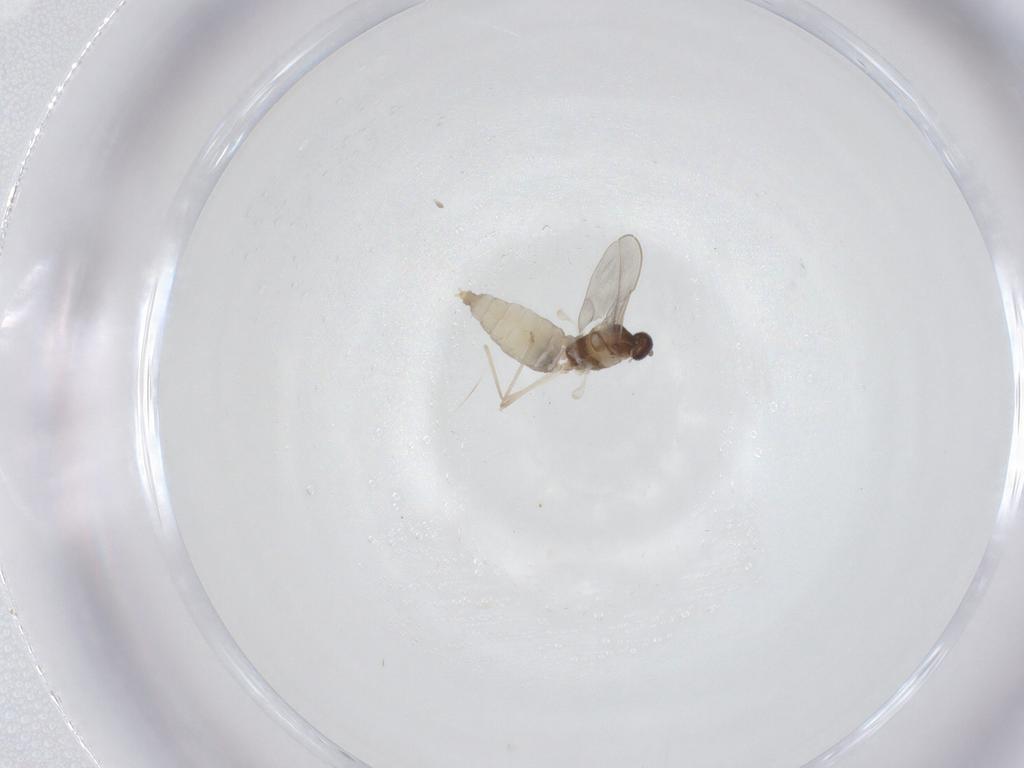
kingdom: Animalia
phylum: Arthropoda
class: Insecta
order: Diptera
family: Cecidomyiidae
